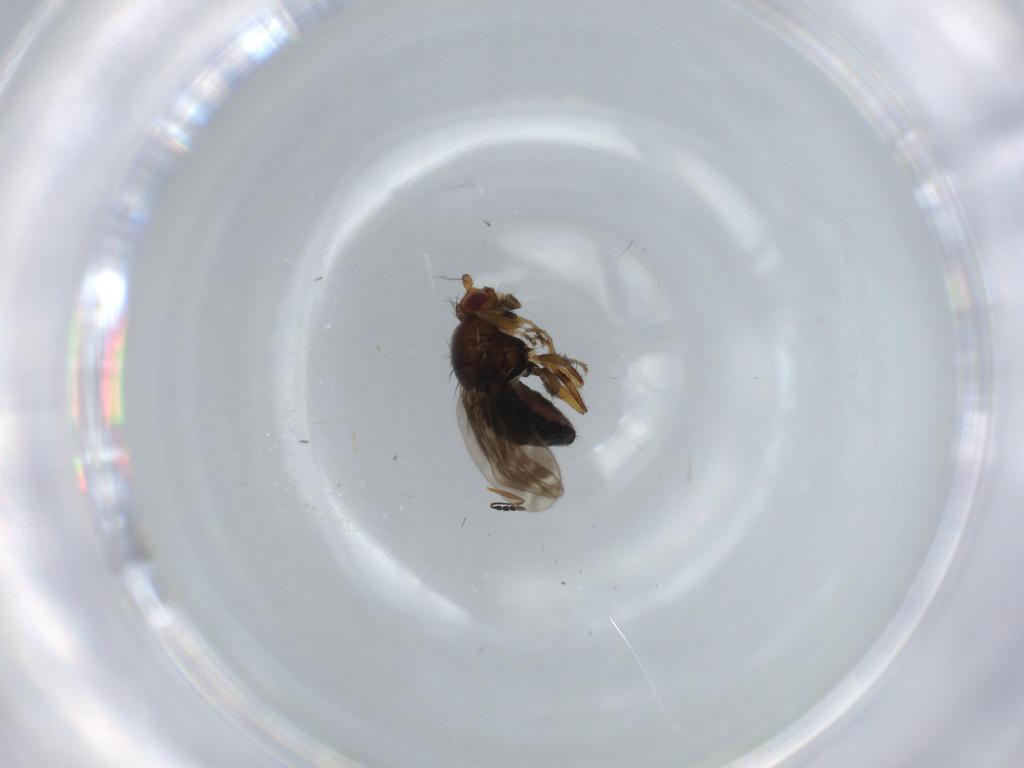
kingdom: Animalia
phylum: Arthropoda
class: Insecta
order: Diptera
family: Sphaeroceridae
